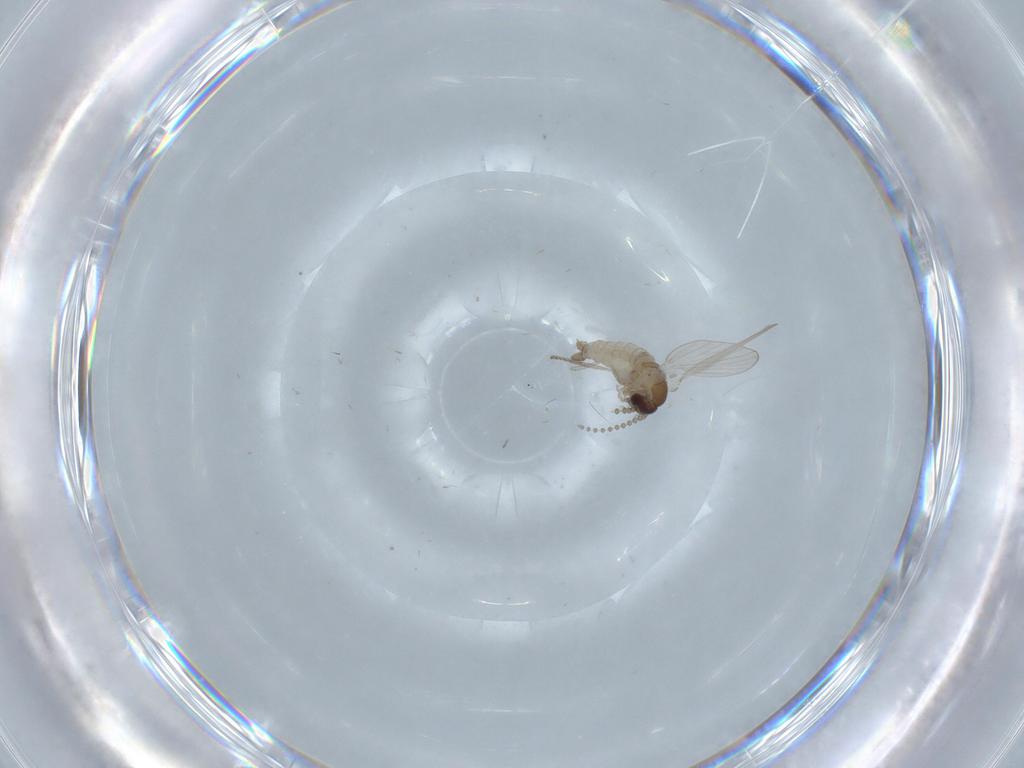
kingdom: Animalia
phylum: Arthropoda
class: Insecta
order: Diptera
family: Psychodidae
